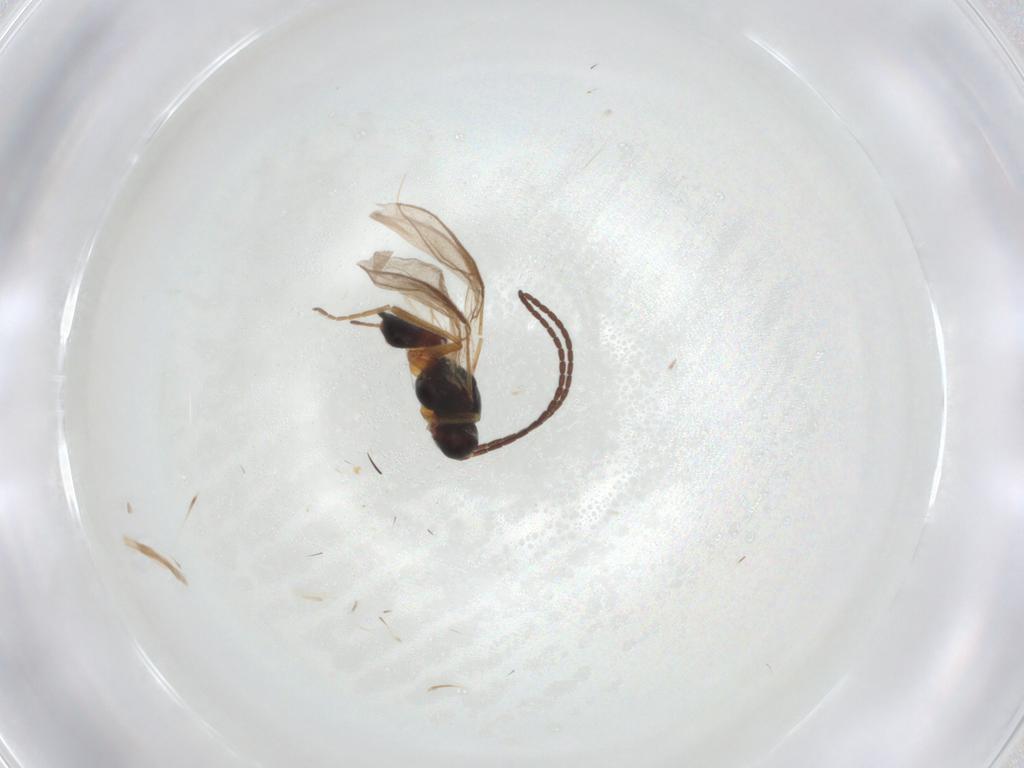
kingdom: Animalia
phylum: Arthropoda
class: Insecta
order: Hymenoptera
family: Braconidae
